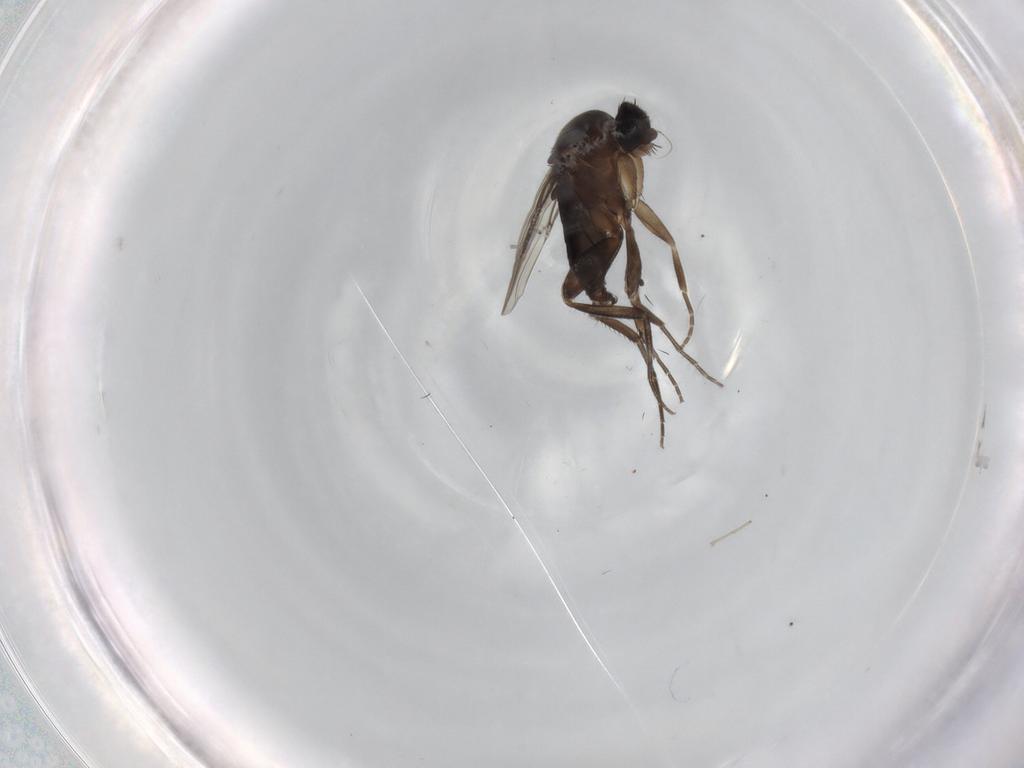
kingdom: Animalia
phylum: Arthropoda
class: Insecta
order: Diptera
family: Phoridae
